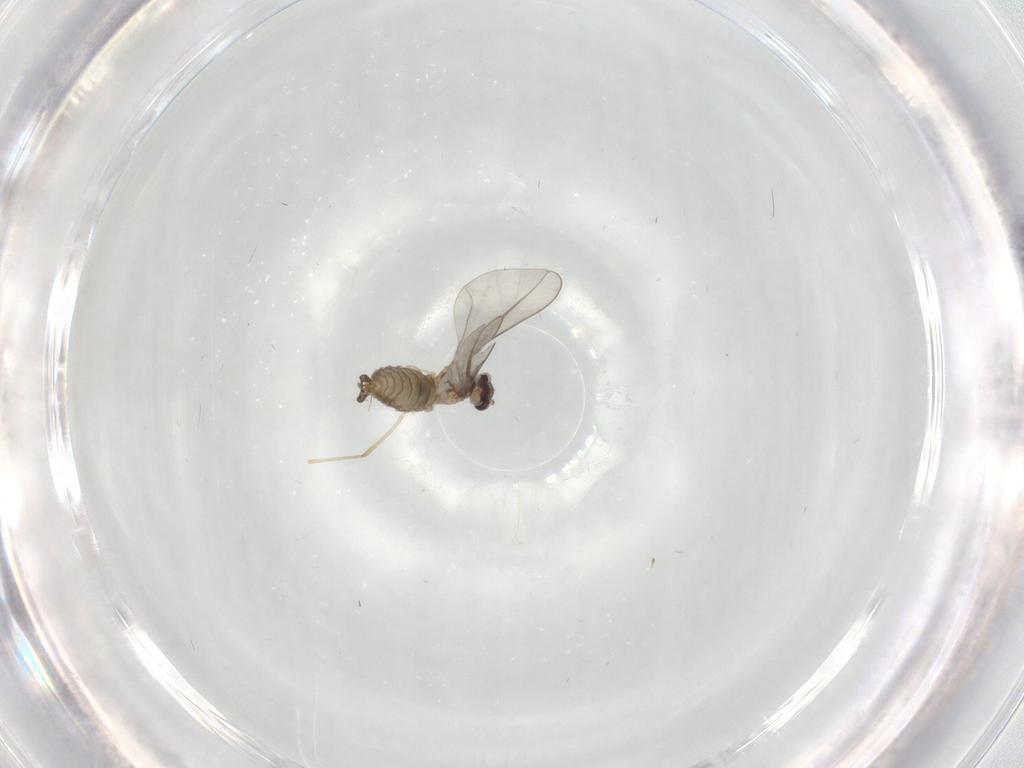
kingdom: Animalia
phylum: Arthropoda
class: Insecta
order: Diptera
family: Cecidomyiidae
